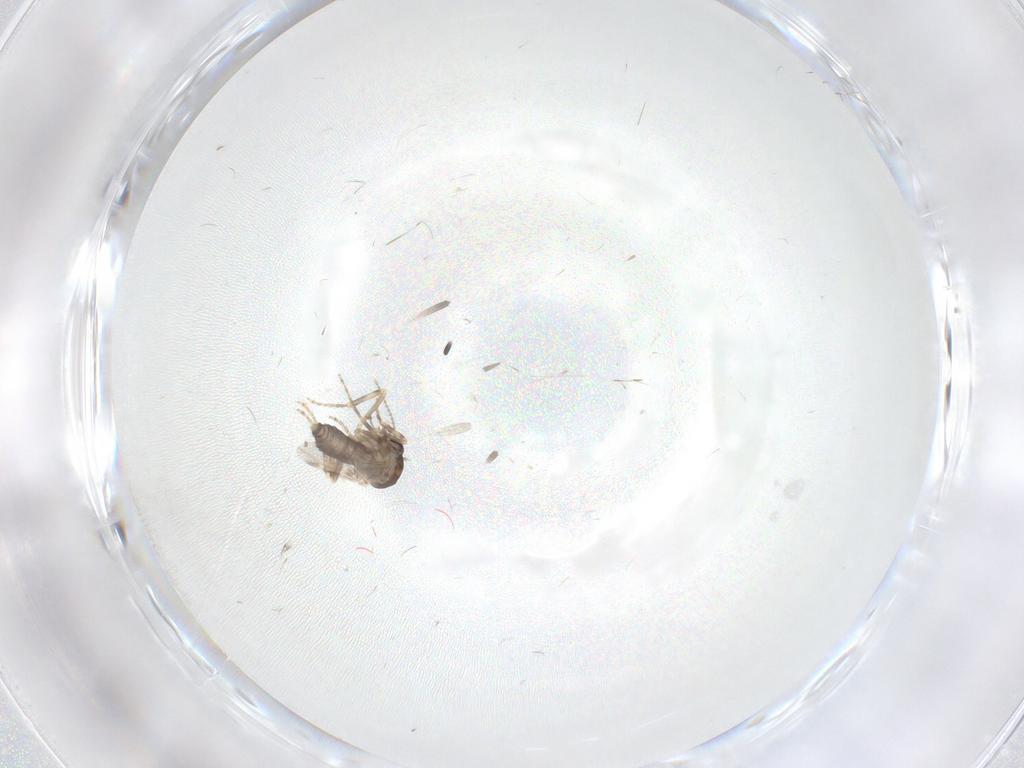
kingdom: Animalia
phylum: Arthropoda
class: Insecta
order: Diptera
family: Ceratopogonidae
